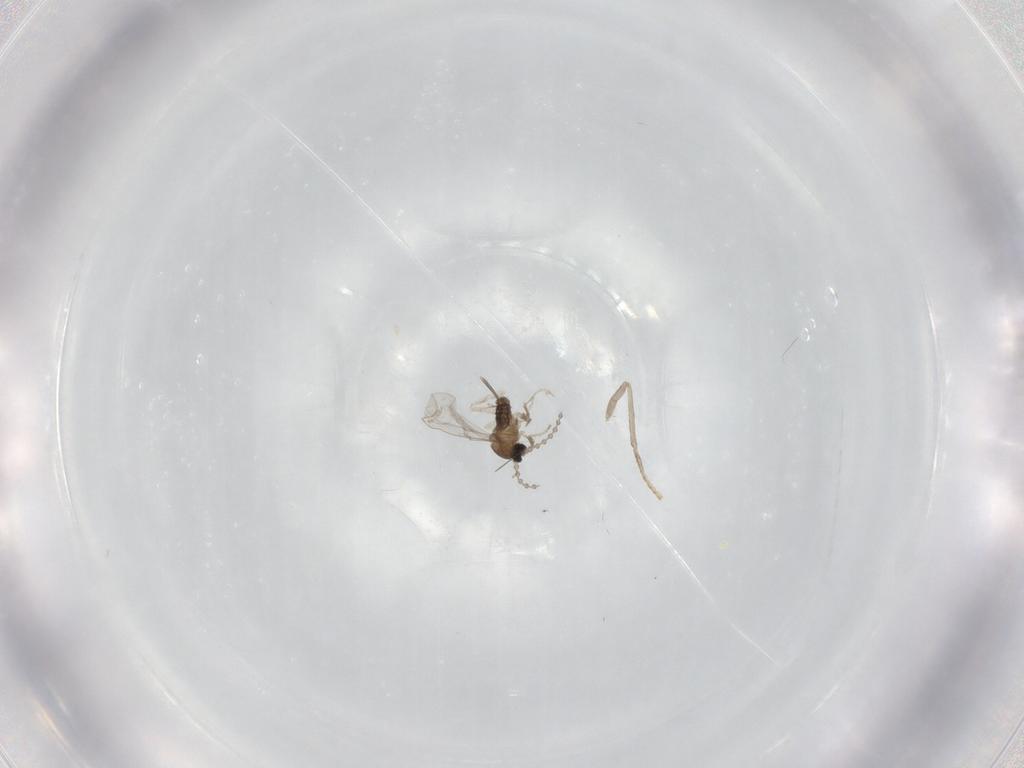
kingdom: Animalia
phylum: Arthropoda
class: Insecta
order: Diptera
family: Cecidomyiidae
